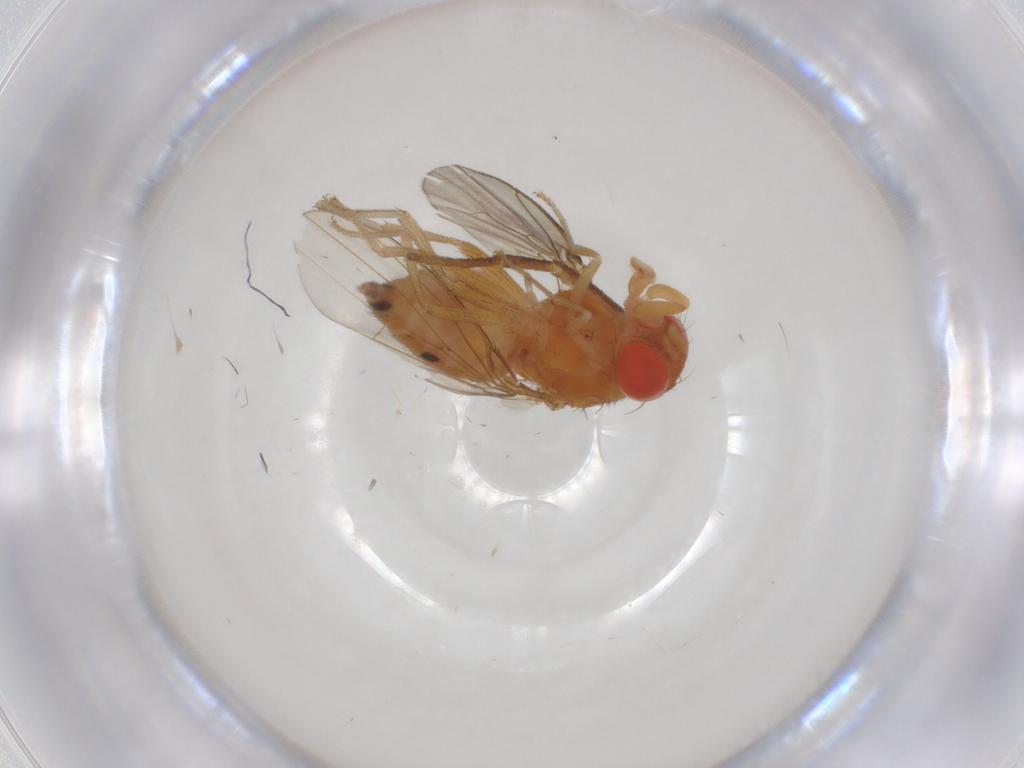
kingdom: Animalia
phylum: Arthropoda
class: Insecta
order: Diptera
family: Drosophilidae
